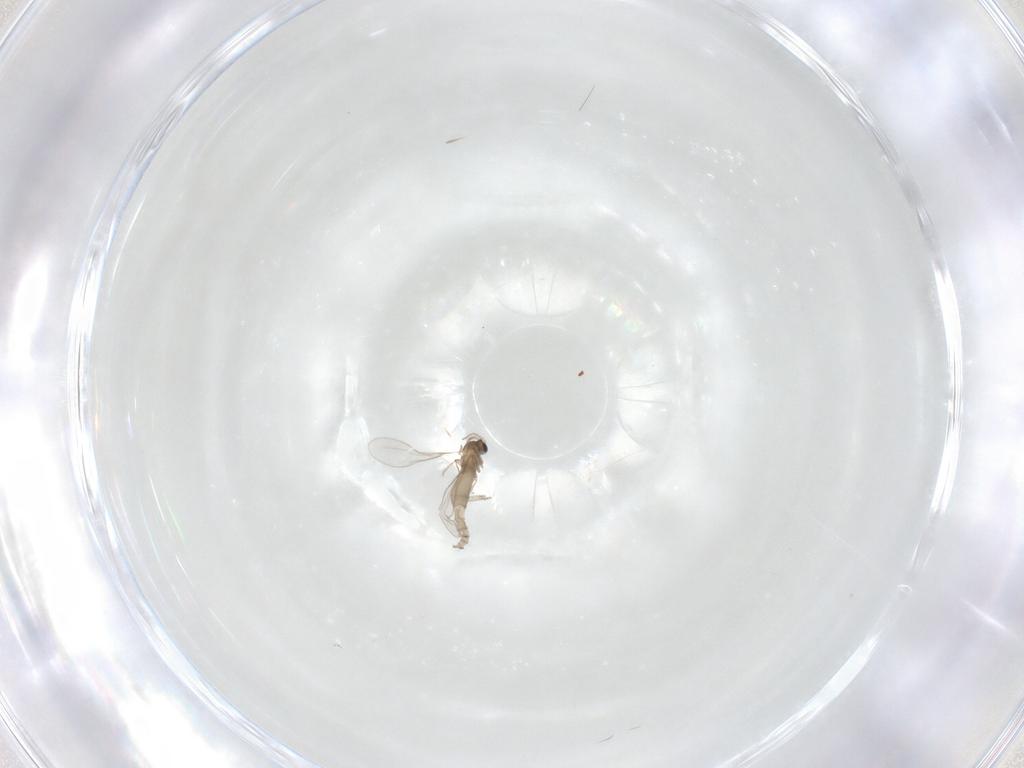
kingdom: Animalia
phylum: Arthropoda
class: Insecta
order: Diptera
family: Cecidomyiidae
